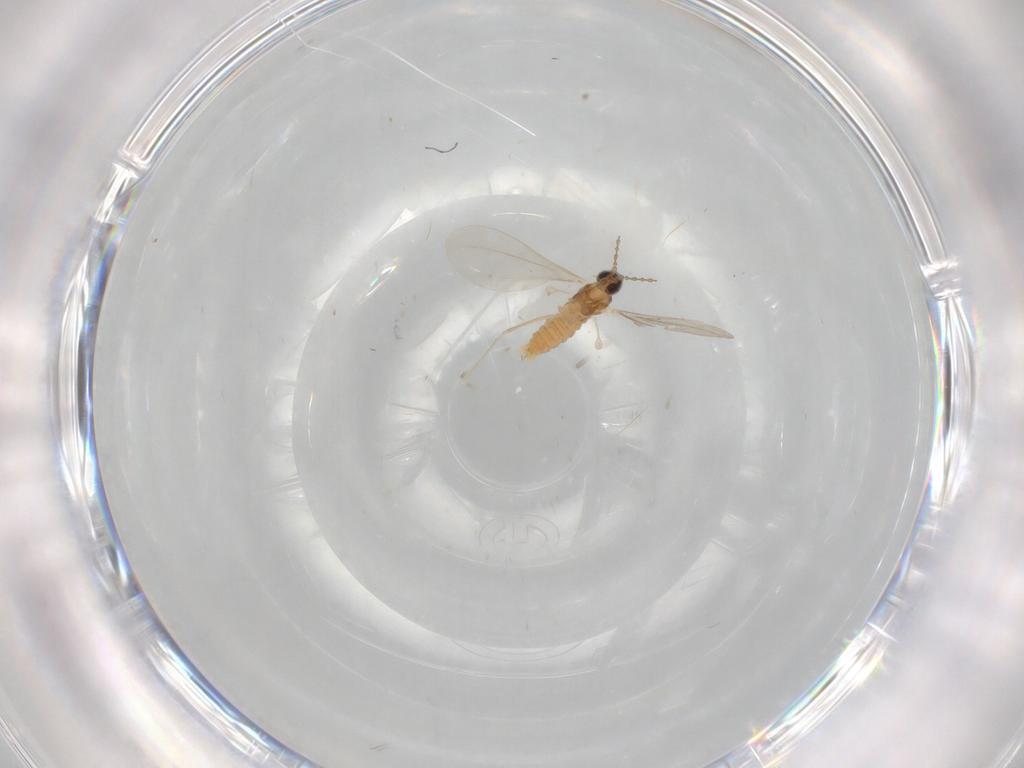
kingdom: Animalia
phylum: Arthropoda
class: Insecta
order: Diptera
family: Cecidomyiidae
